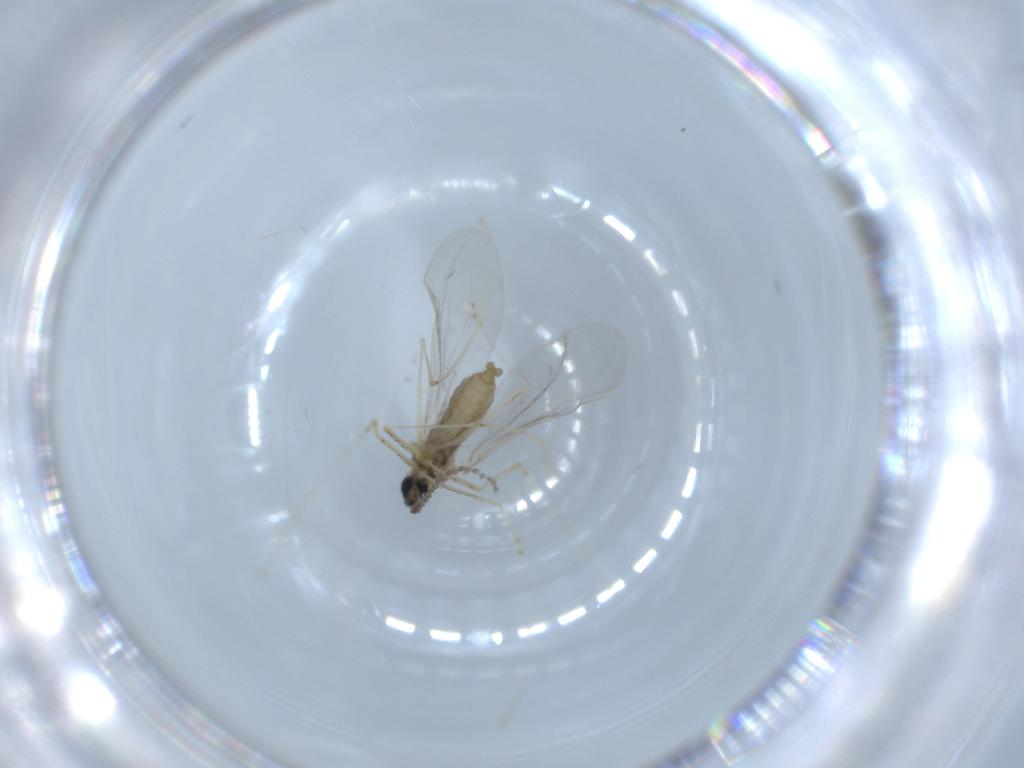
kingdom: Animalia
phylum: Arthropoda
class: Insecta
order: Diptera
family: Cecidomyiidae
